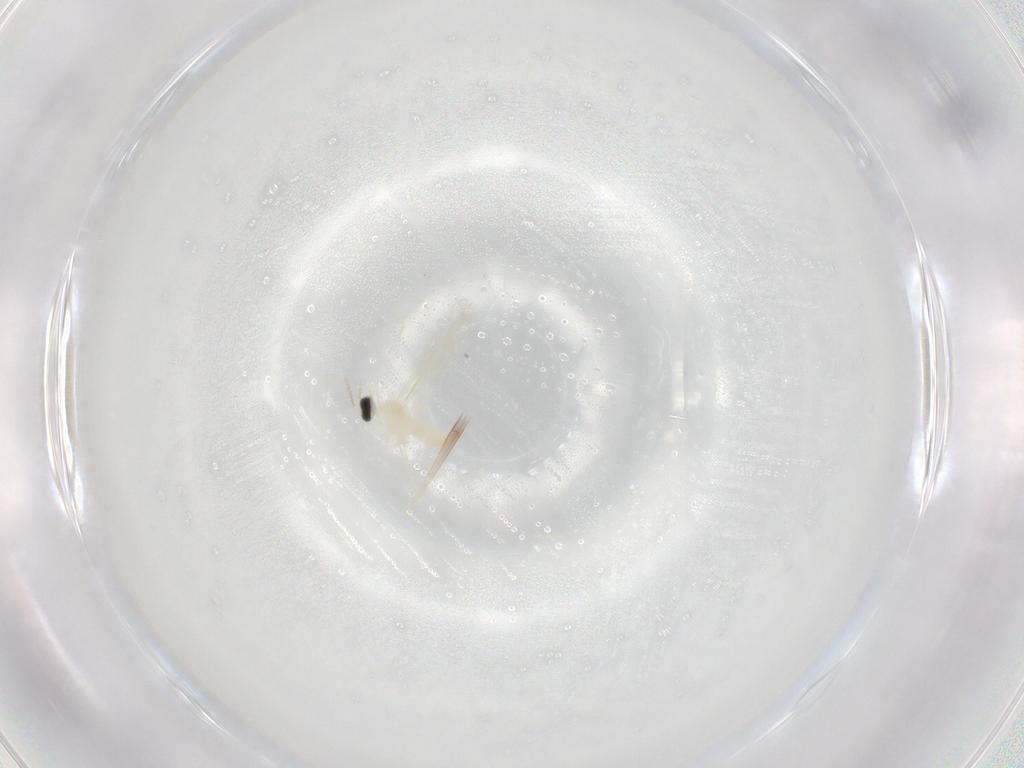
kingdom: Animalia
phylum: Arthropoda
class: Insecta
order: Diptera
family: Cecidomyiidae
